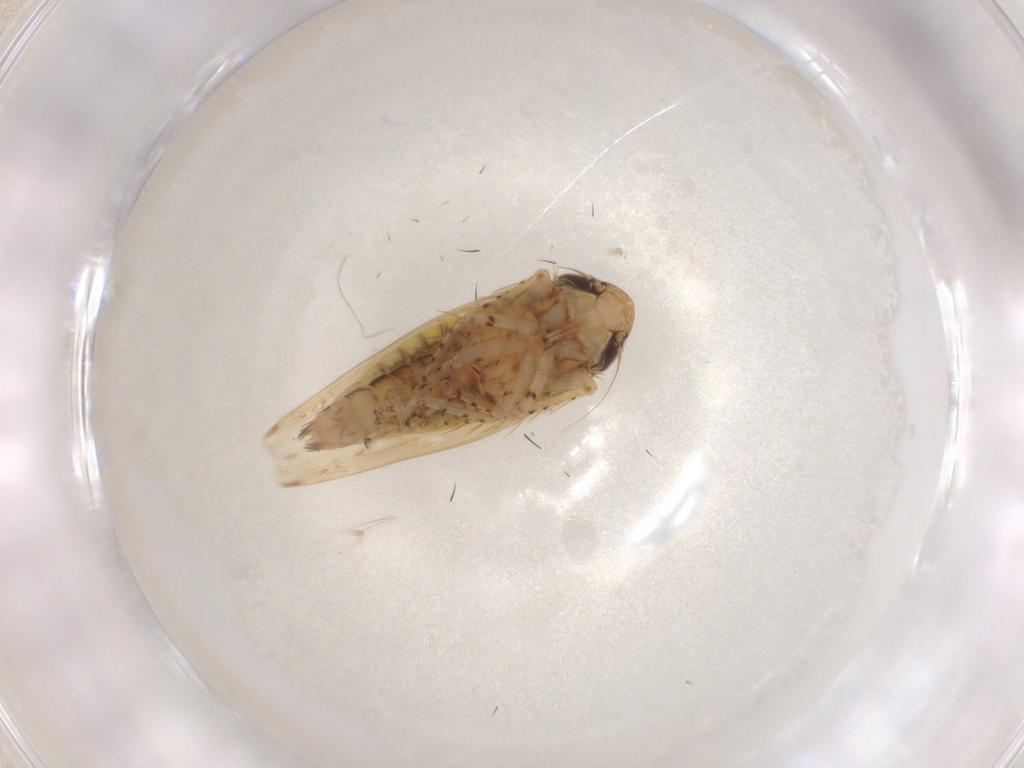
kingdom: Animalia
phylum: Arthropoda
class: Insecta
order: Hemiptera
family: Cicadellidae
